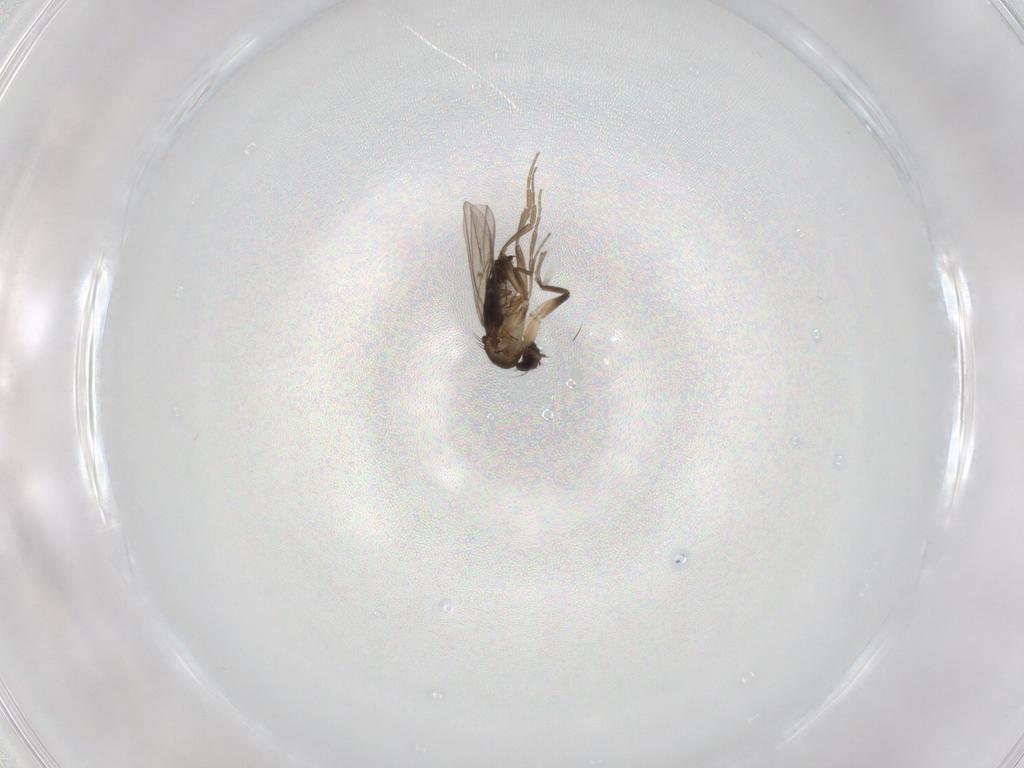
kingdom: Animalia
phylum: Arthropoda
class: Insecta
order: Diptera
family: Phoridae
